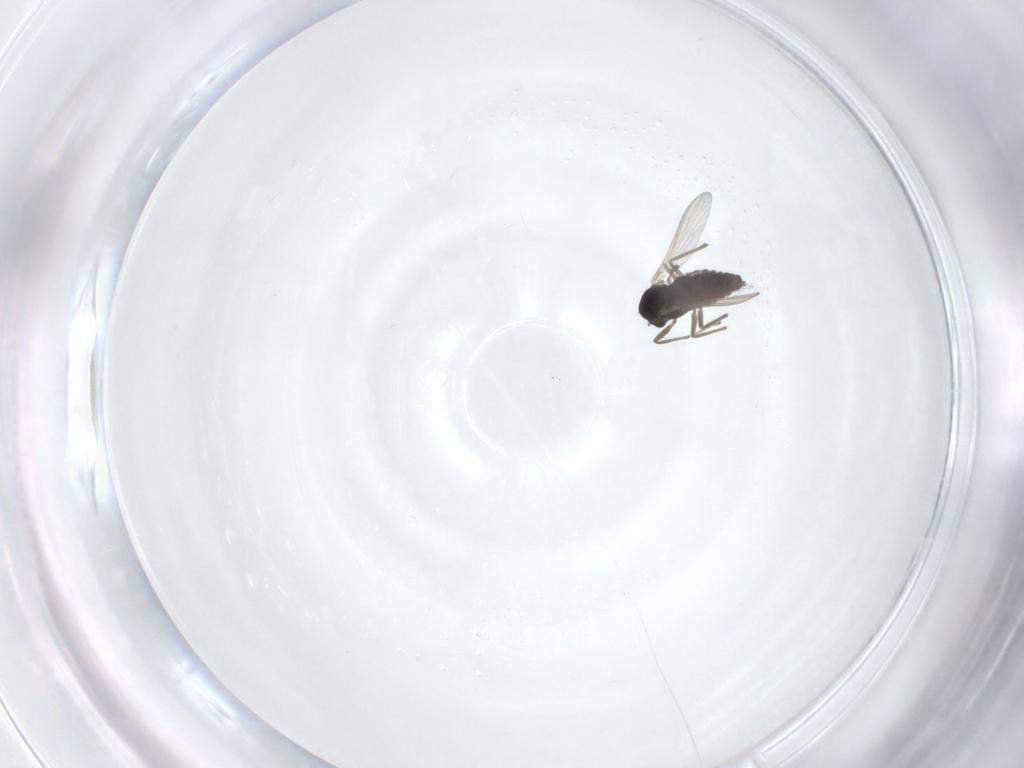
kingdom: Animalia
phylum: Arthropoda
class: Insecta
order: Diptera
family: Chironomidae
